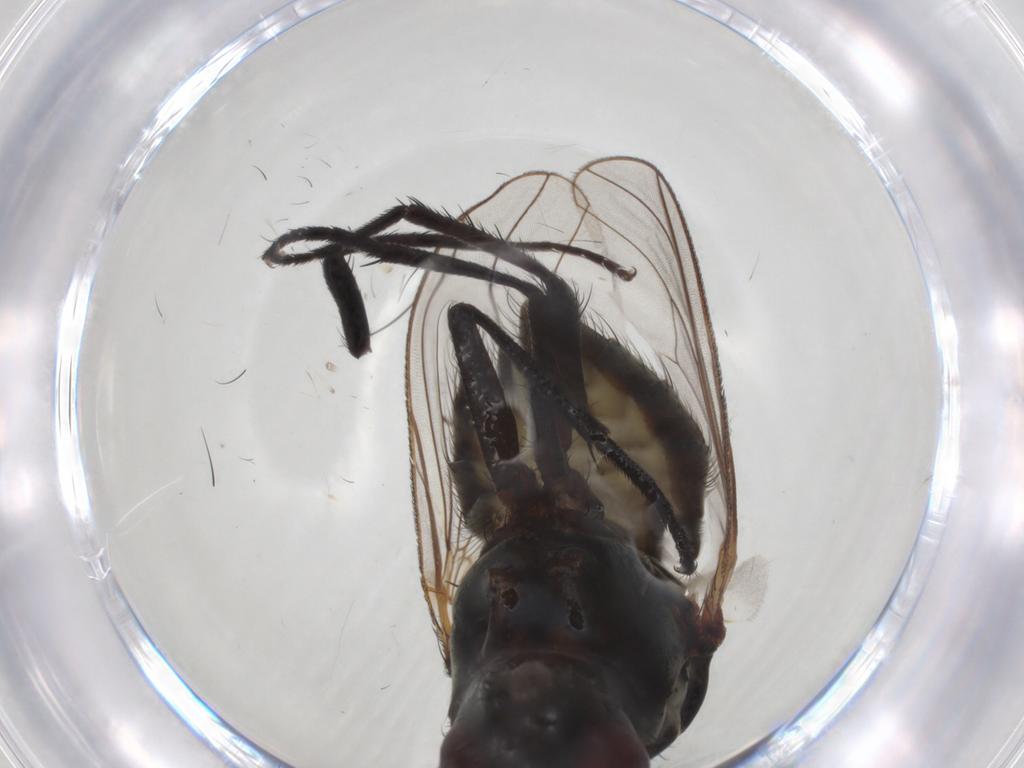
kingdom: Animalia
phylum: Arthropoda
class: Insecta
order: Diptera
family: Anthomyiidae
